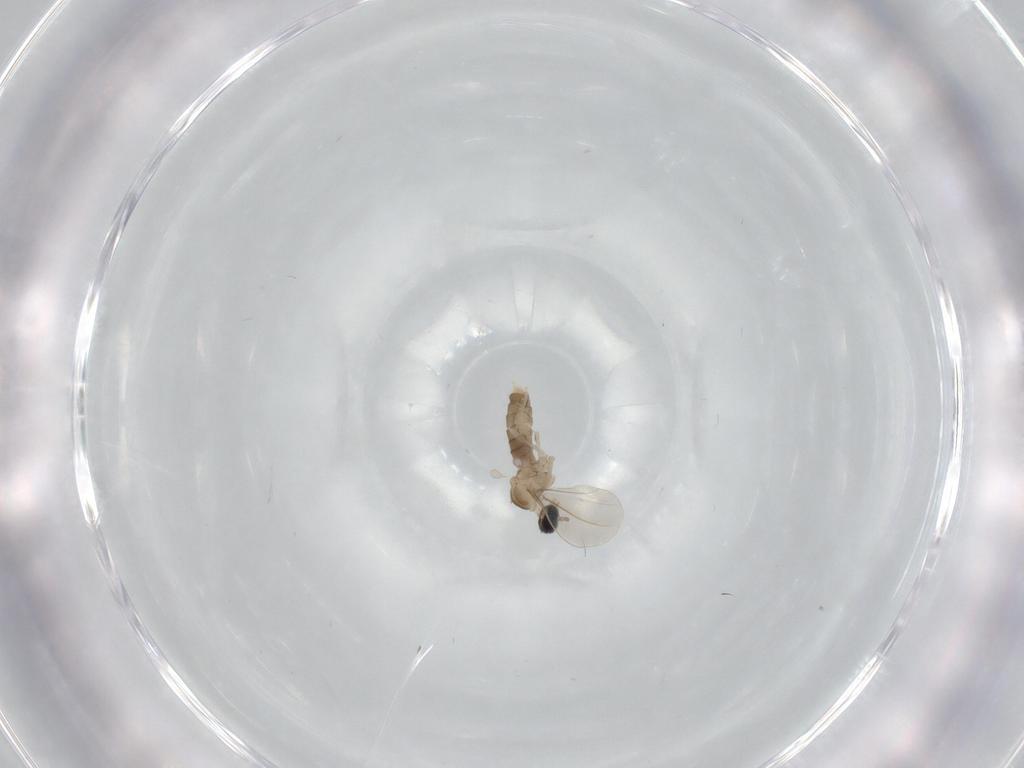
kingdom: Animalia
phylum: Arthropoda
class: Insecta
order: Diptera
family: Cecidomyiidae
